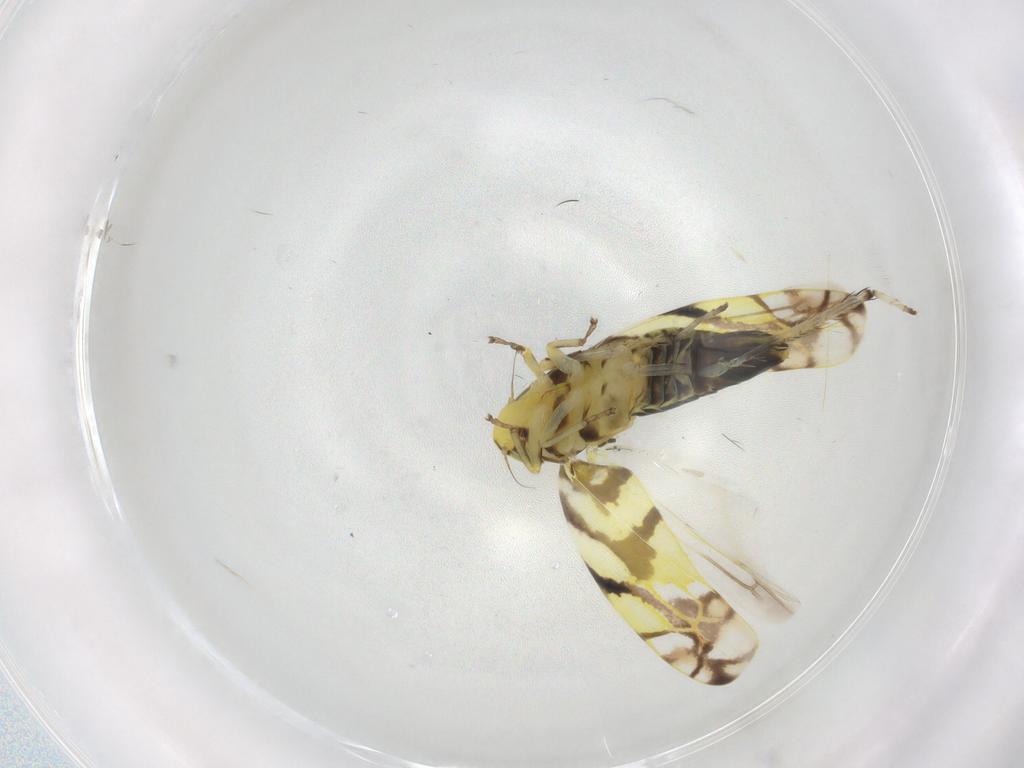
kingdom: Animalia
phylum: Arthropoda
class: Insecta
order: Hemiptera
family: Cicadellidae
